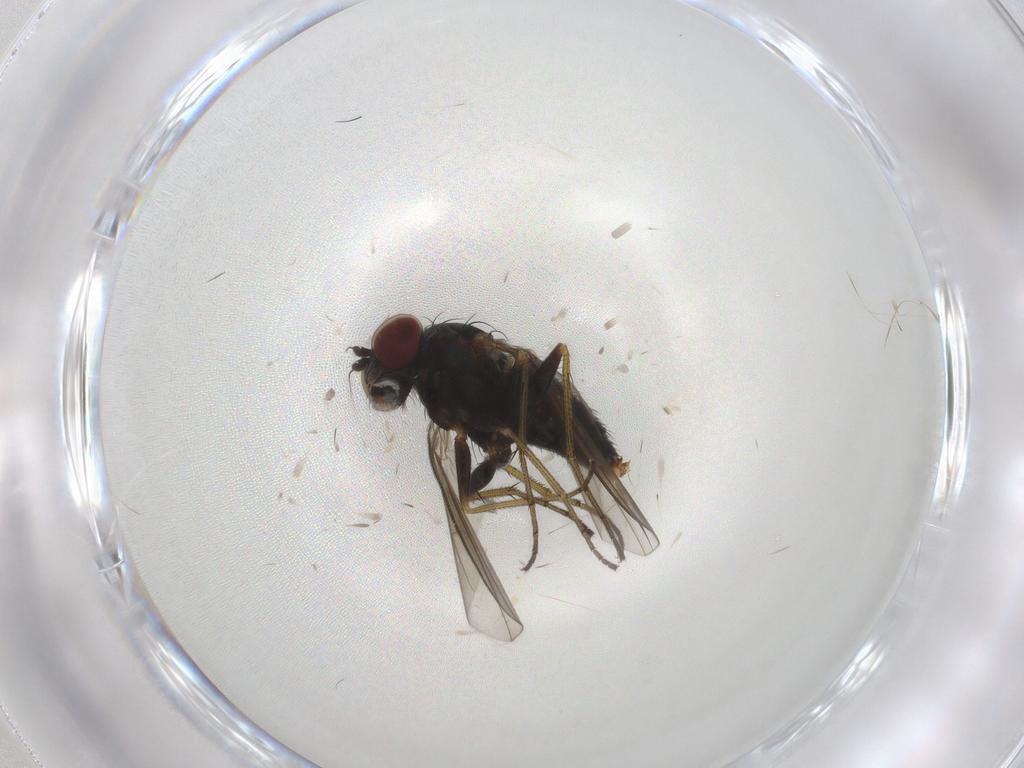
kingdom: Animalia
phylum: Arthropoda
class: Insecta
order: Diptera
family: Dolichopodidae
